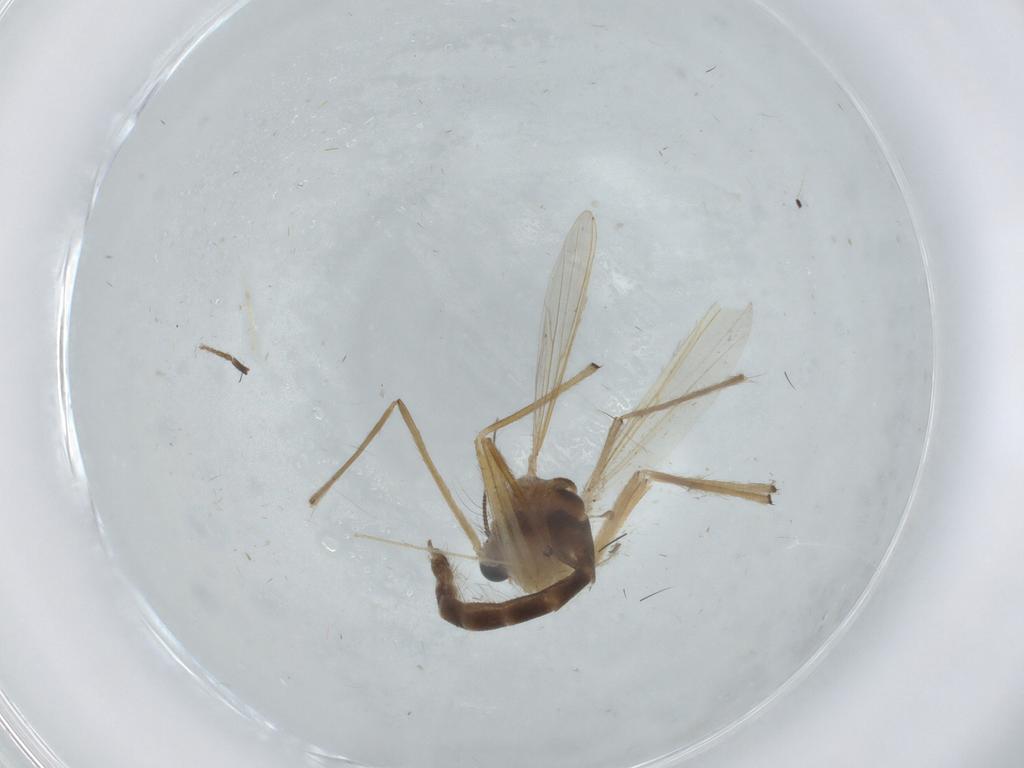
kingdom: Animalia
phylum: Arthropoda
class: Insecta
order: Diptera
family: Chironomidae
